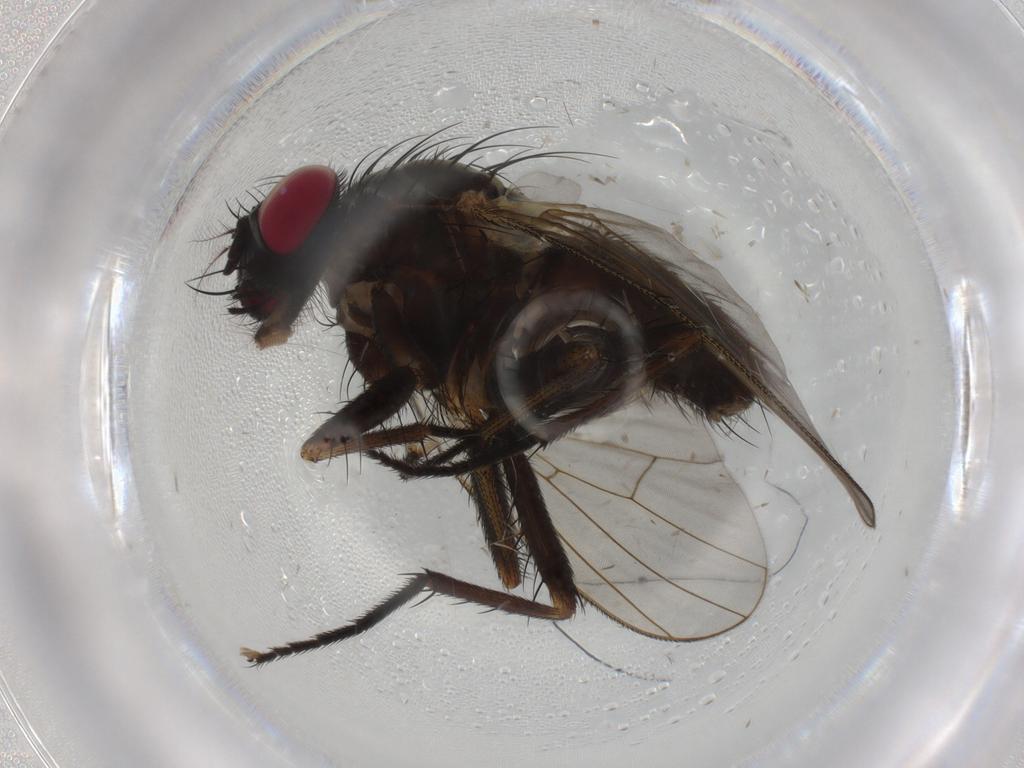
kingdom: Animalia
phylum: Arthropoda
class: Insecta
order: Diptera
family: Muscidae
